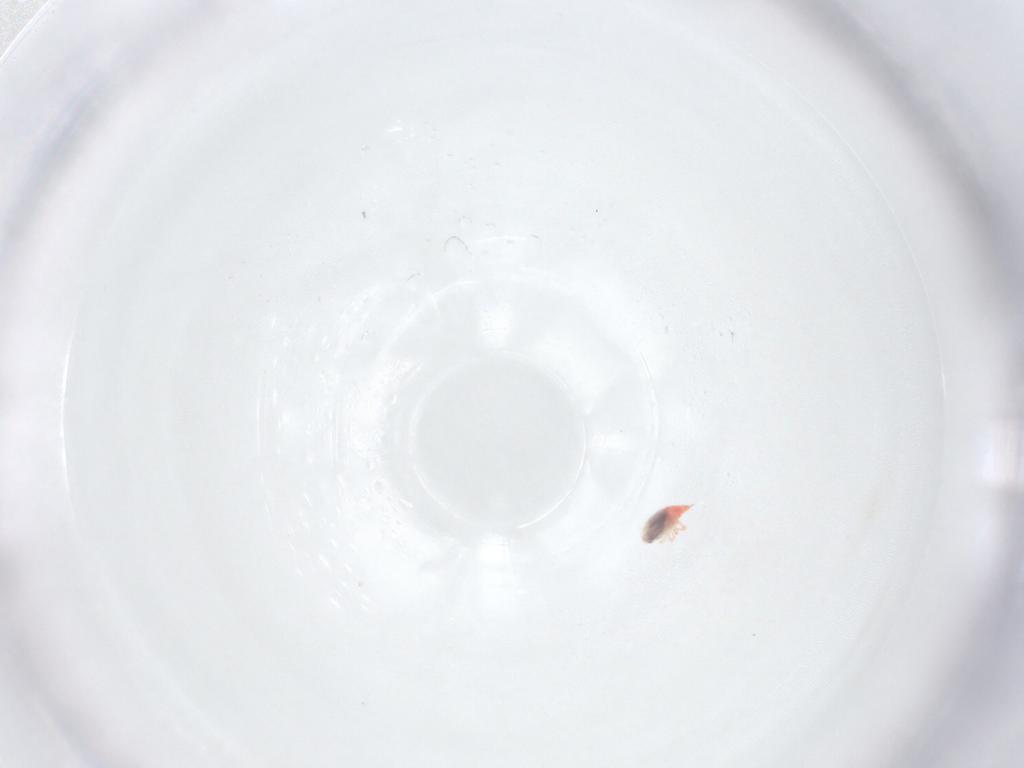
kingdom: Animalia
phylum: Arthropoda
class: Arachnida
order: Trombidiformes
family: Bdellidae
